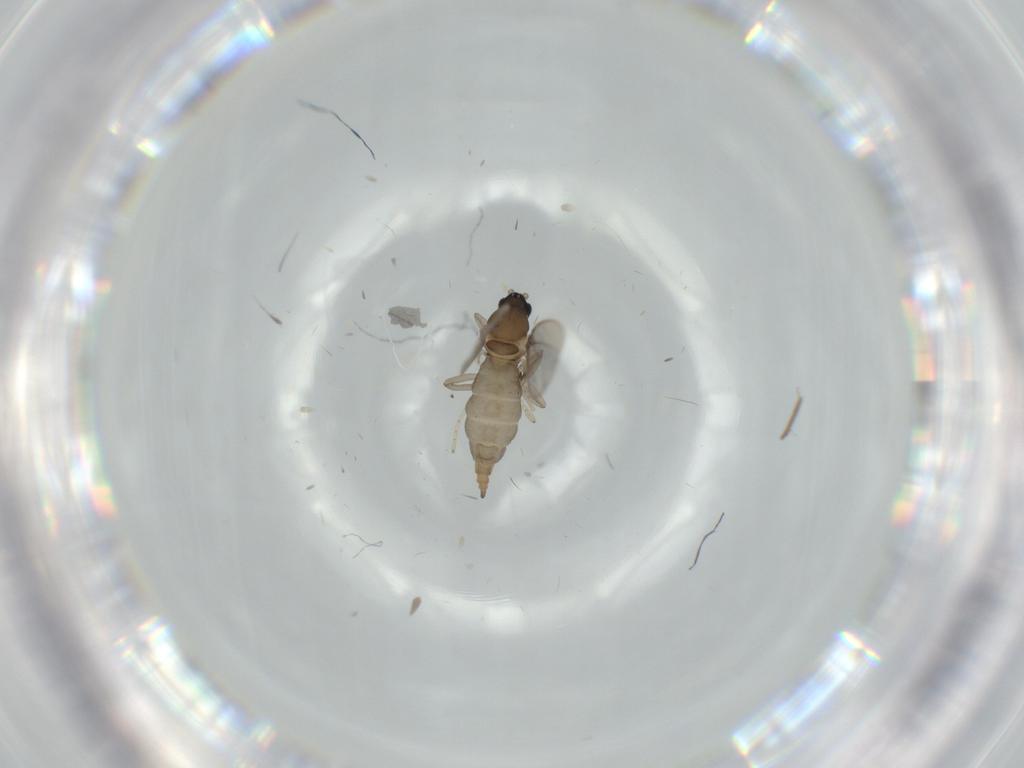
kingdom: Animalia
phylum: Arthropoda
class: Insecta
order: Diptera
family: Cecidomyiidae
